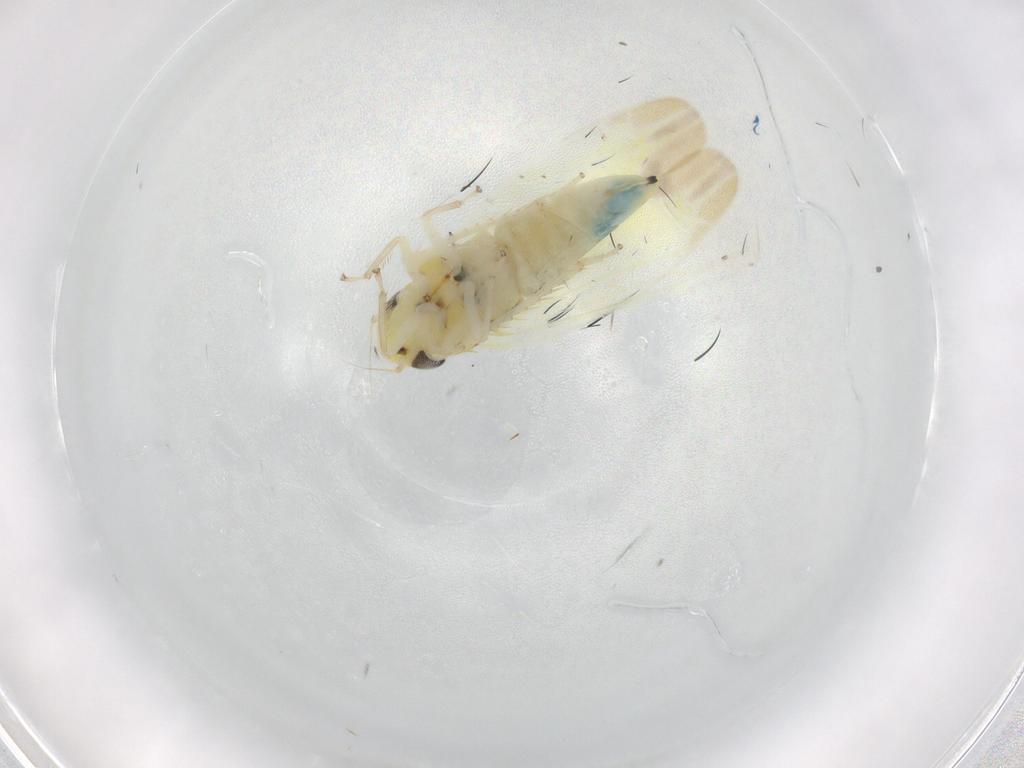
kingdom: Animalia
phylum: Arthropoda
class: Insecta
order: Hemiptera
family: Cicadellidae
